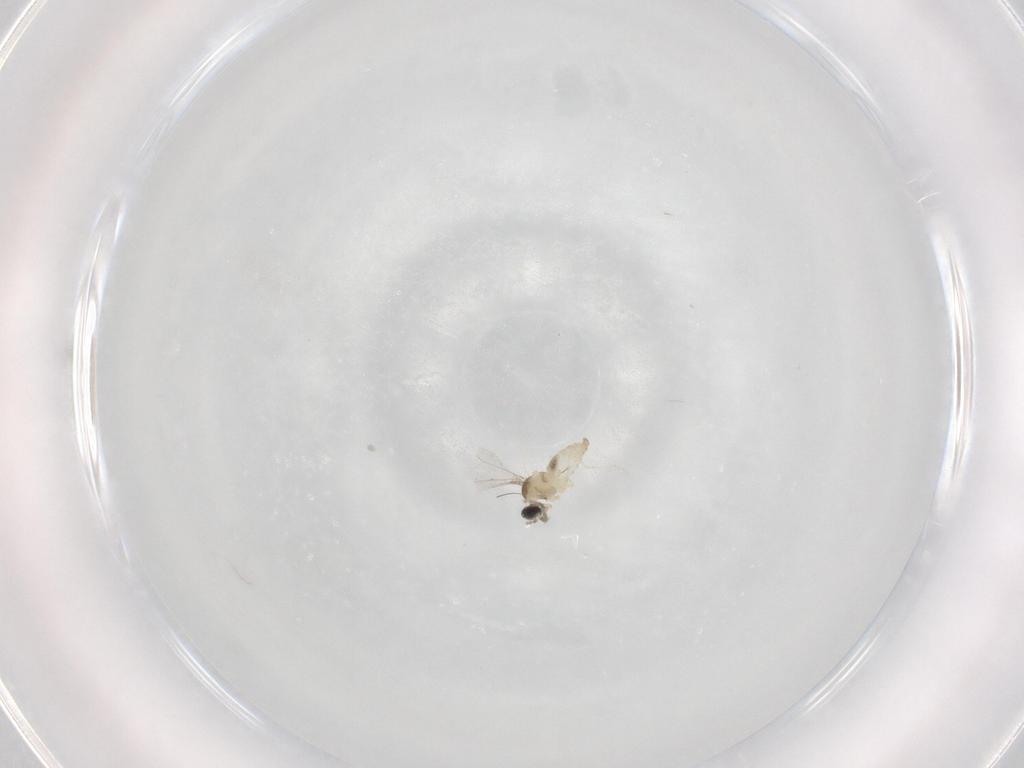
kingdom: Animalia
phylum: Arthropoda
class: Insecta
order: Diptera
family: Cecidomyiidae
